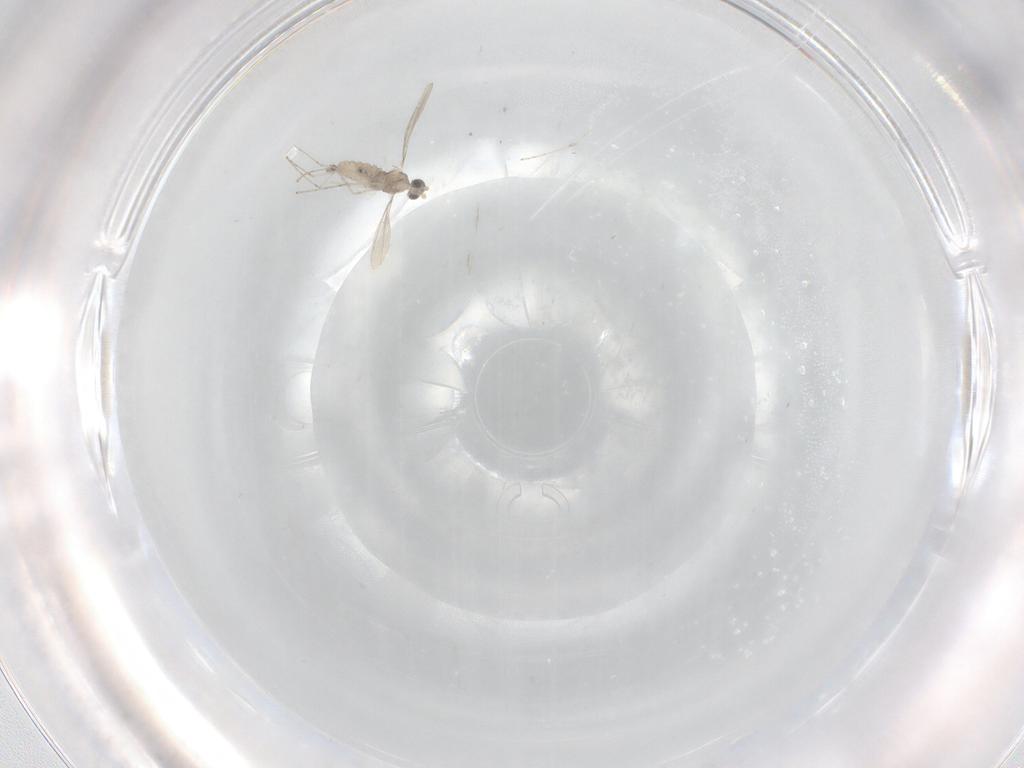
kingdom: Animalia
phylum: Arthropoda
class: Insecta
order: Diptera
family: Cecidomyiidae
